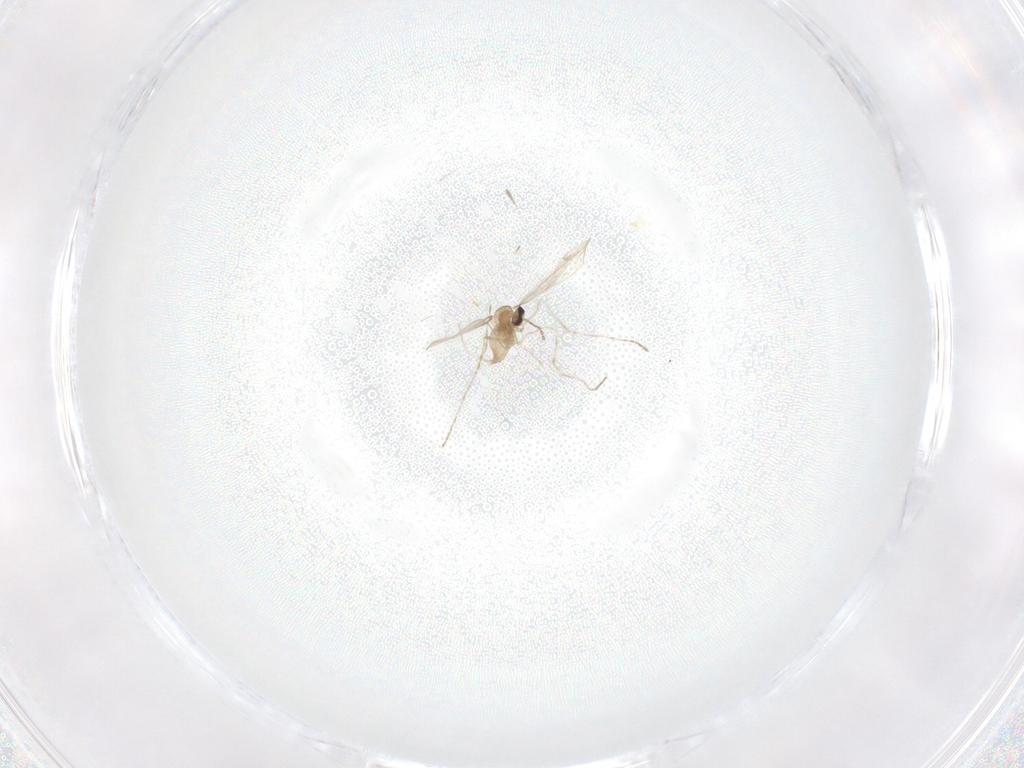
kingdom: Animalia
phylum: Arthropoda
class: Insecta
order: Diptera
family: Cecidomyiidae
